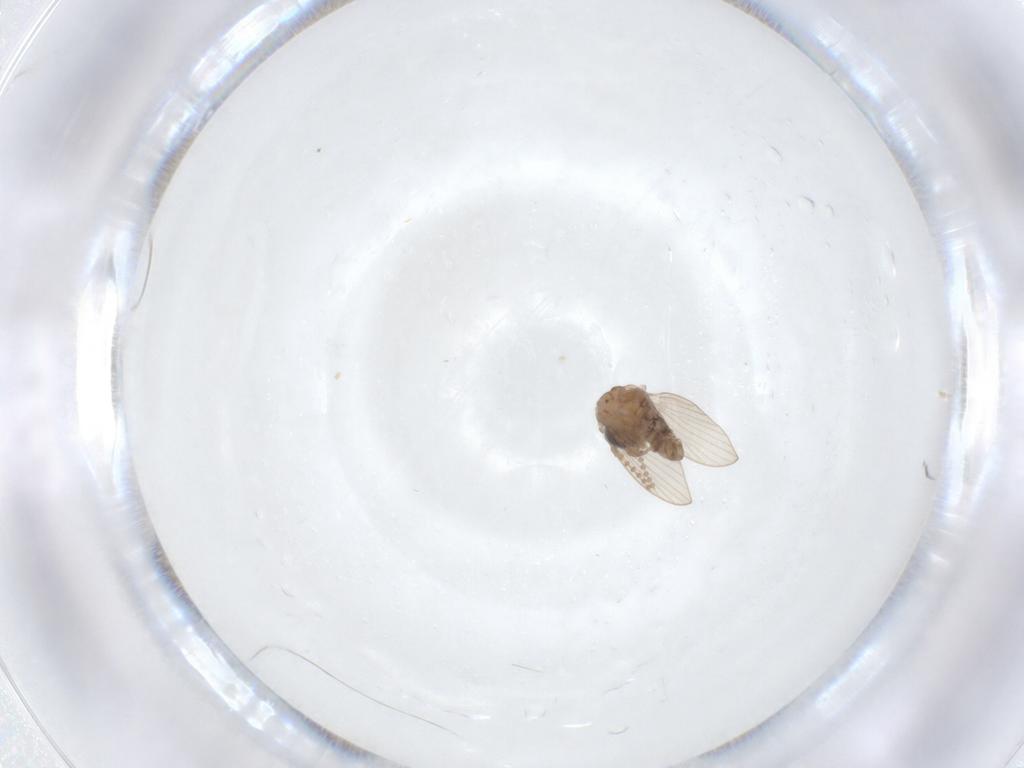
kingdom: Animalia
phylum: Arthropoda
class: Insecta
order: Diptera
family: Psychodidae
